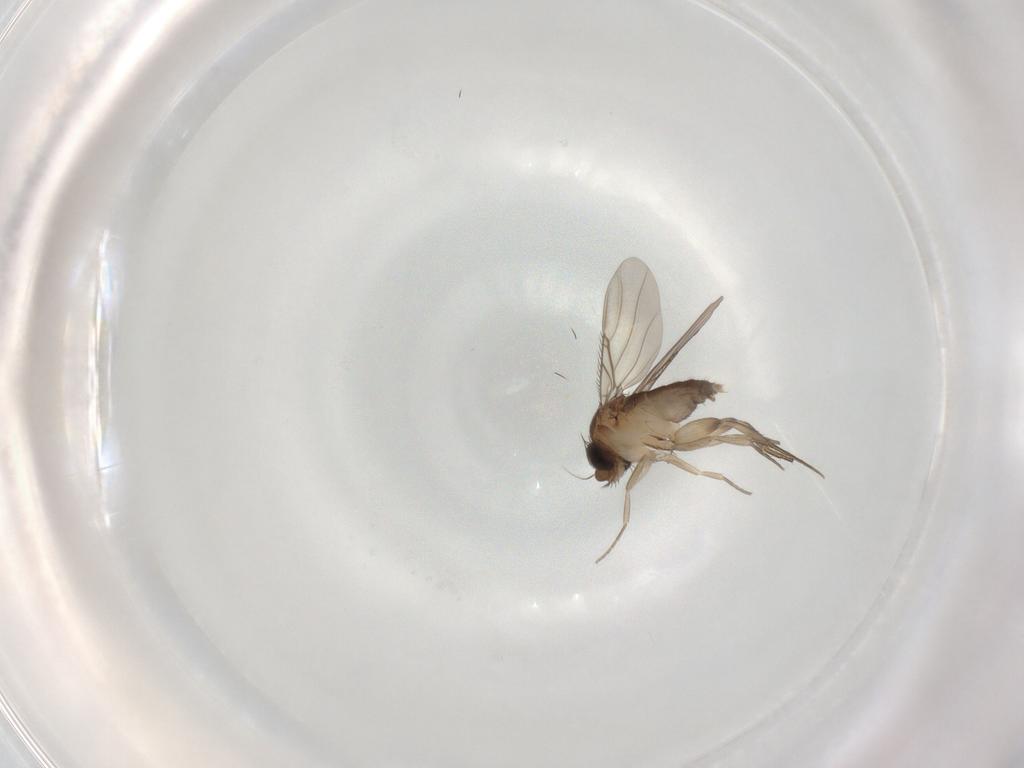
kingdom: Animalia
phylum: Arthropoda
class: Insecta
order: Diptera
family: Phoridae
